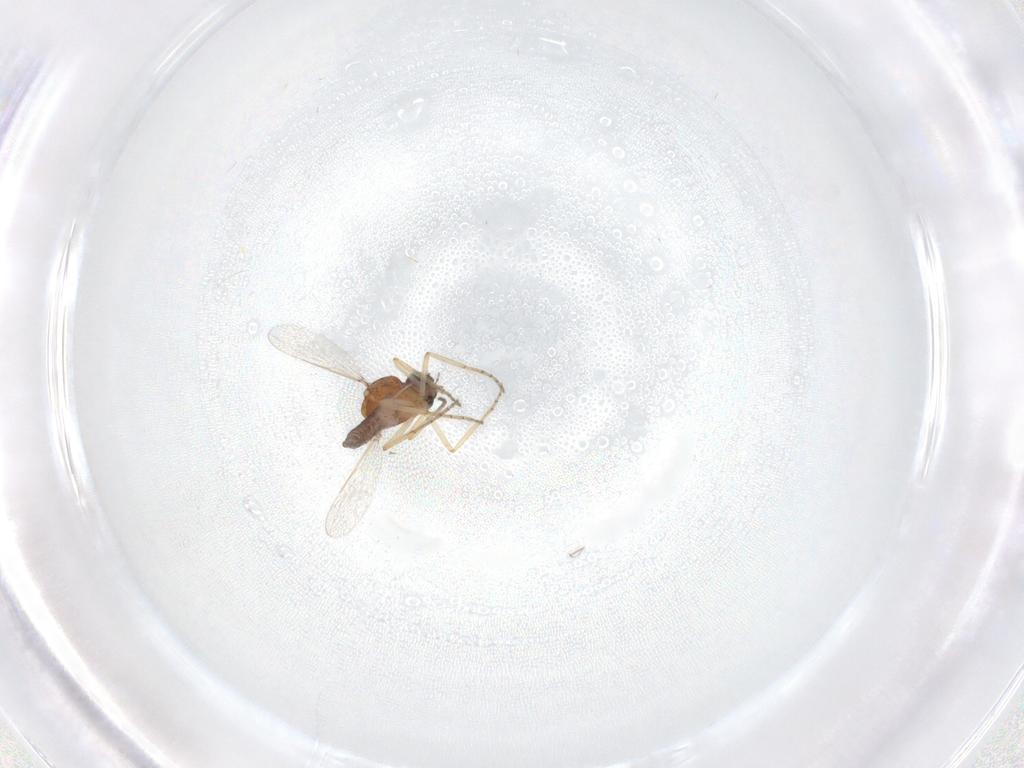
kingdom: Animalia
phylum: Arthropoda
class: Insecta
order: Diptera
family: Ceratopogonidae
